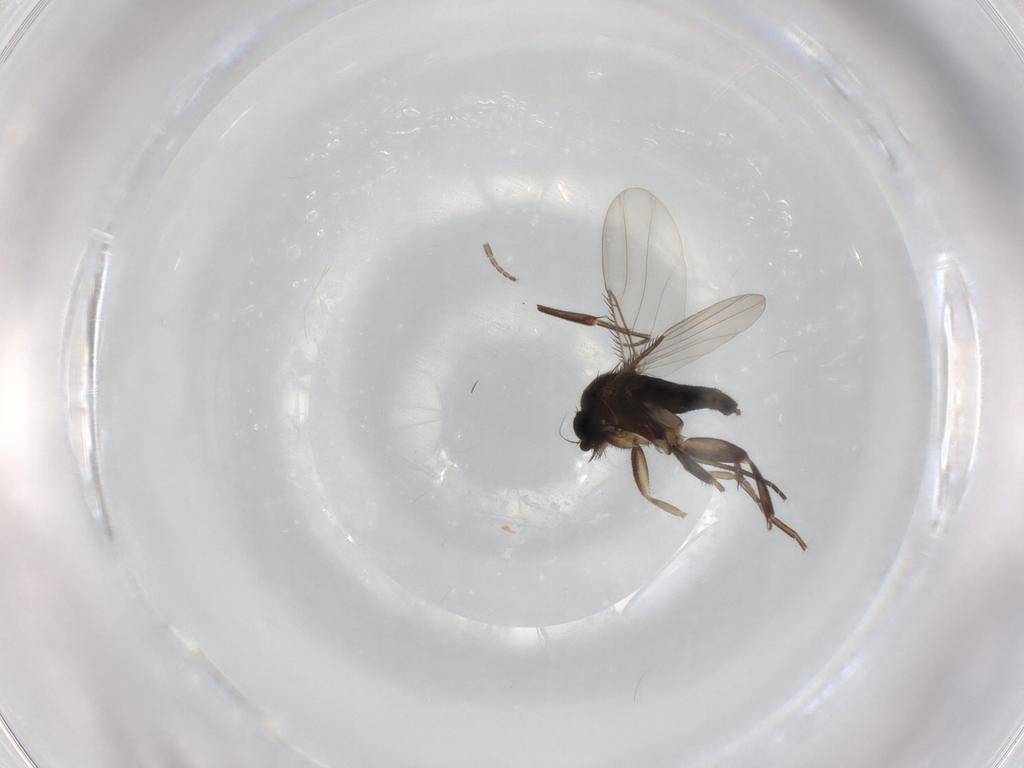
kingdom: Animalia
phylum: Arthropoda
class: Insecta
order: Diptera
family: Phoridae
